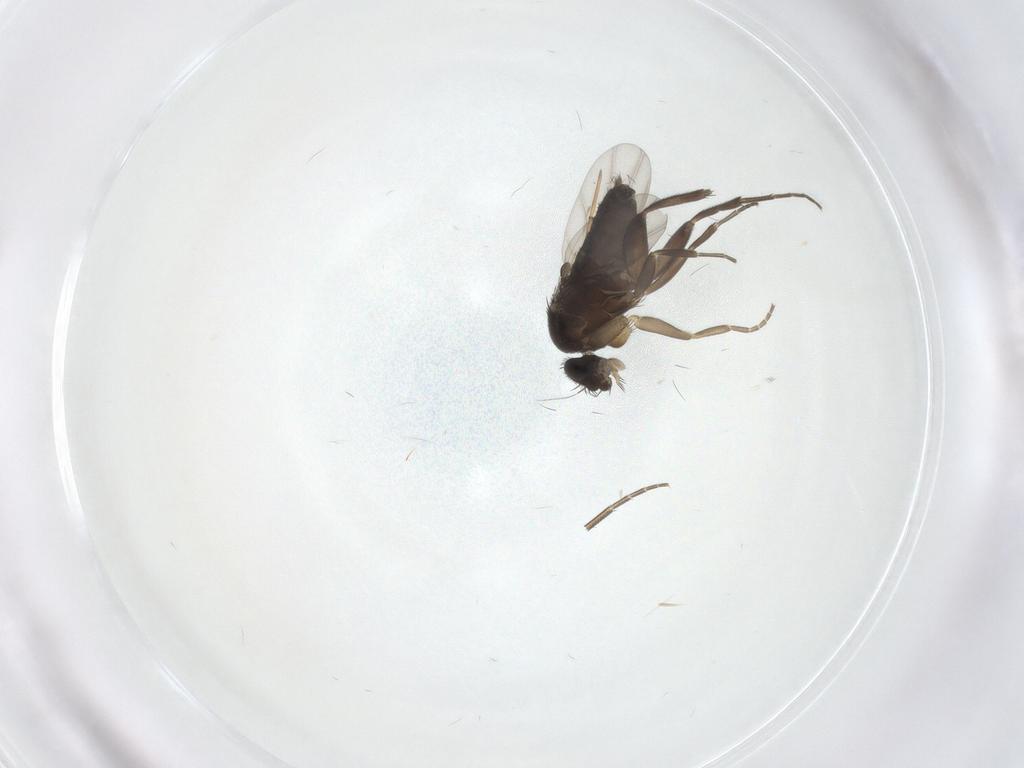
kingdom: Animalia
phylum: Arthropoda
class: Insecta
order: Diptera
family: Phoridae
